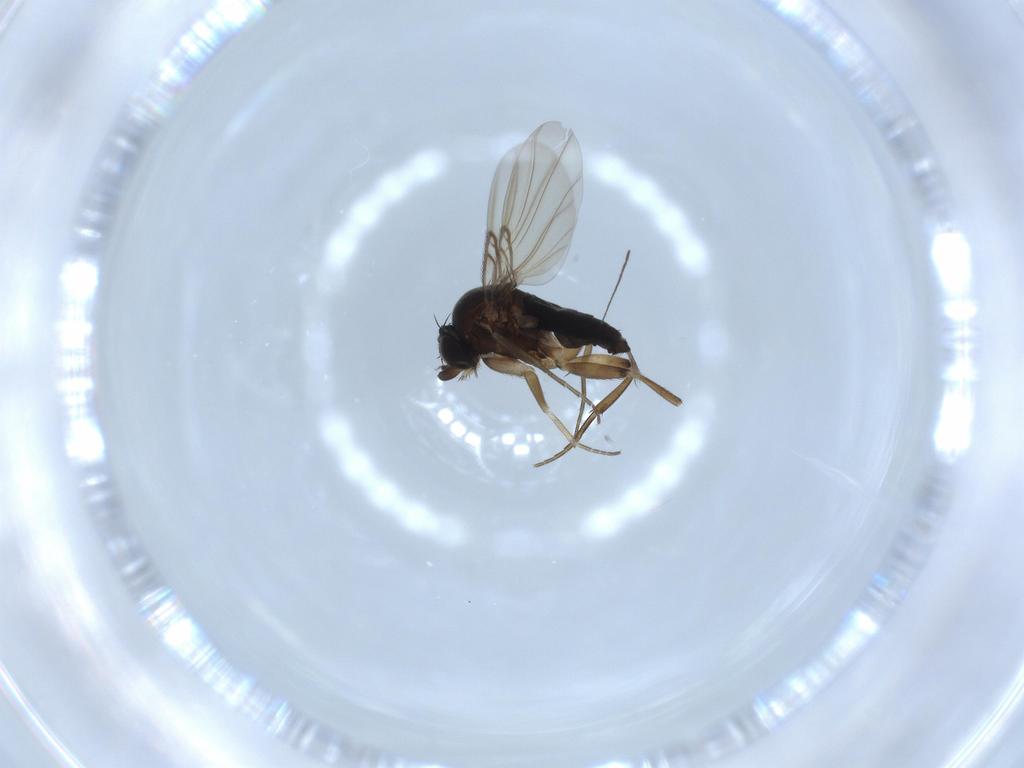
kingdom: Animalia
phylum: Arthropoda
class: Insecta
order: Diptera
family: Phoridae
